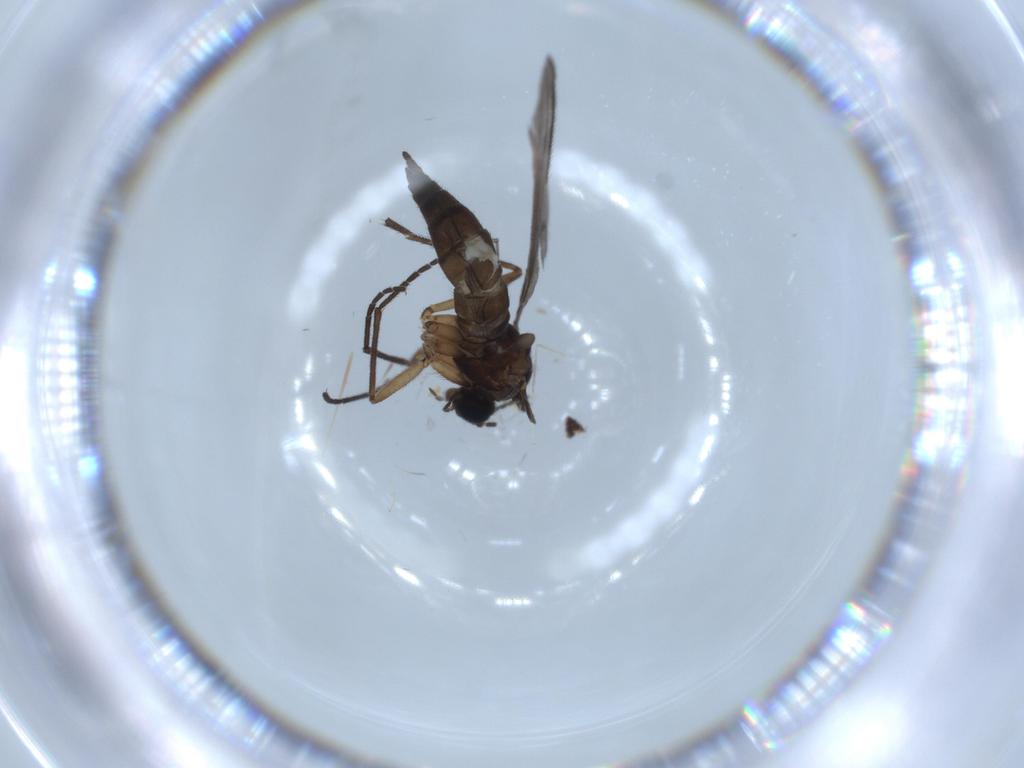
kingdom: Animalia
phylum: Arthropoda
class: Insecta
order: Diptera
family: Sciaridae
